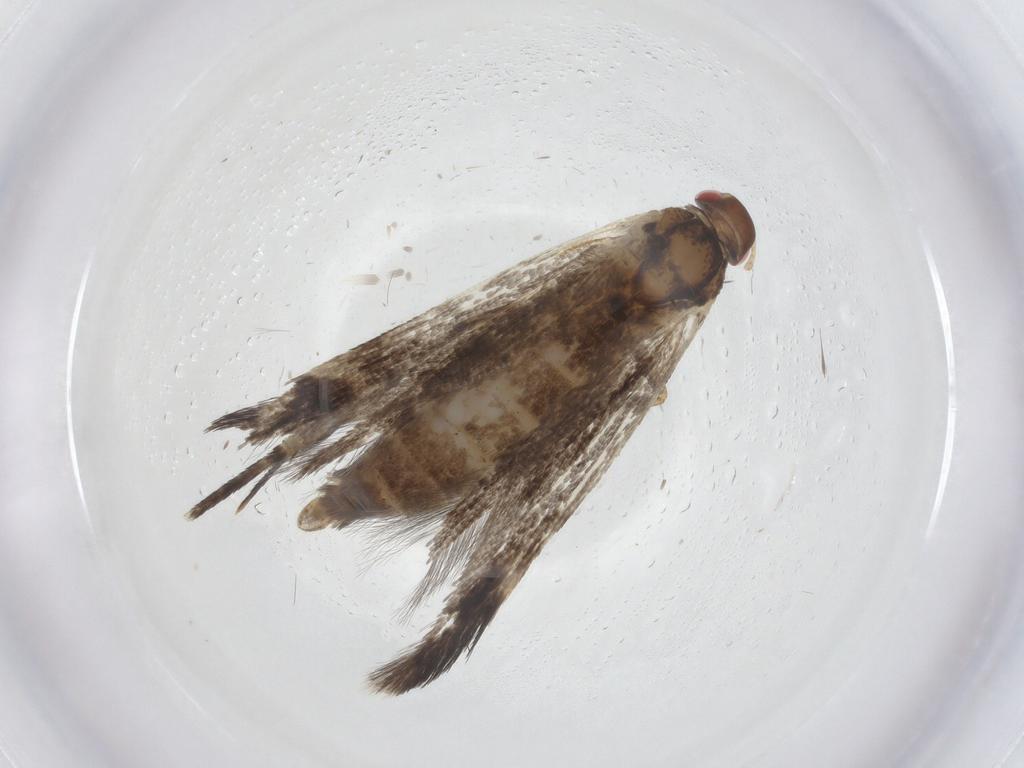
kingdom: Animalia
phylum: Arthropoda
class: Insecta
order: Lepidoptera
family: Gelechiidae
